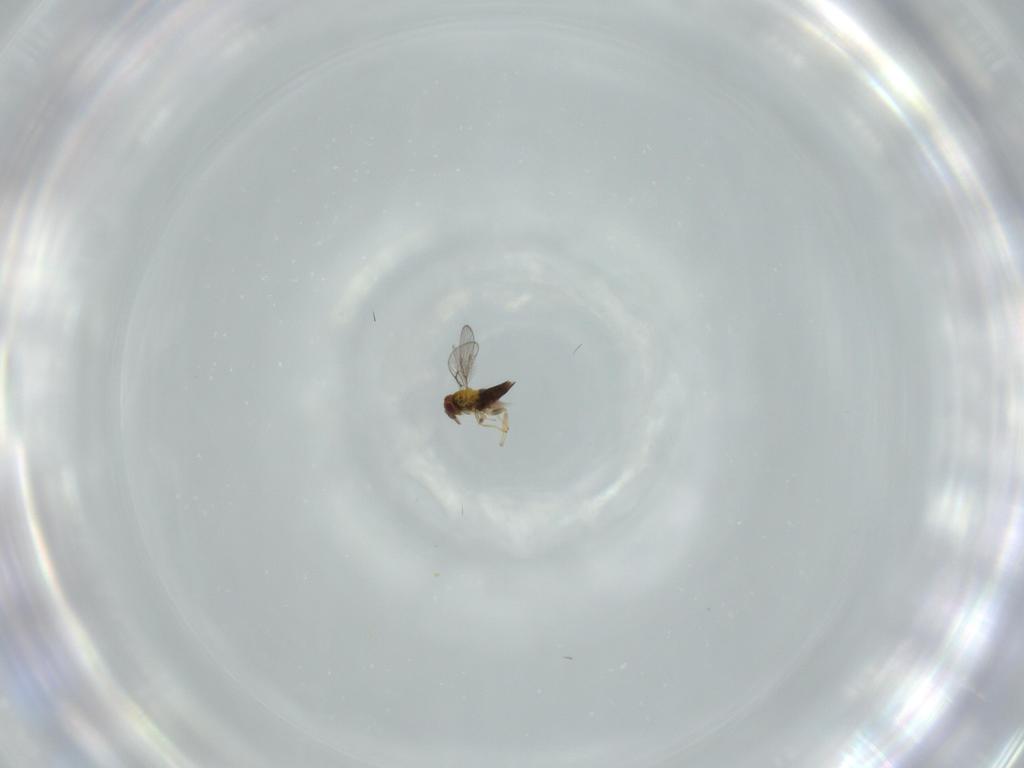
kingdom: Animalia
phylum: Arthropoda
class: Insecta
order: Hymenoptera
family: Trichogrammatidae
